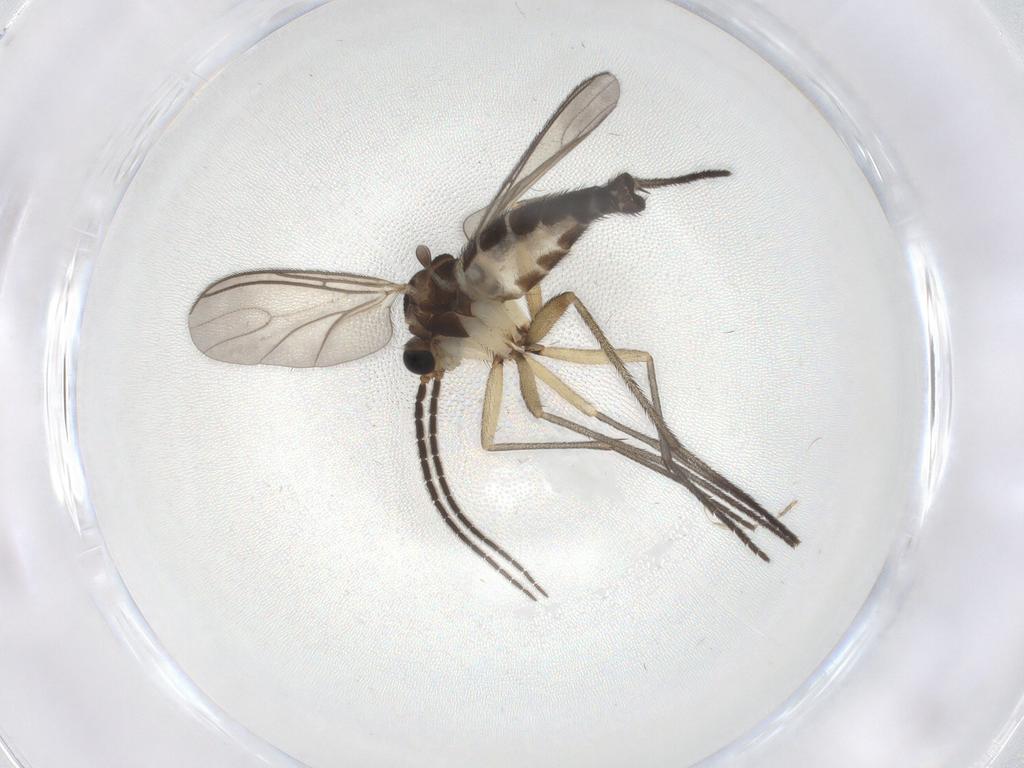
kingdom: Animalia
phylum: Arthropoda
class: Insecta
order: Diptera
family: Sciaridae
